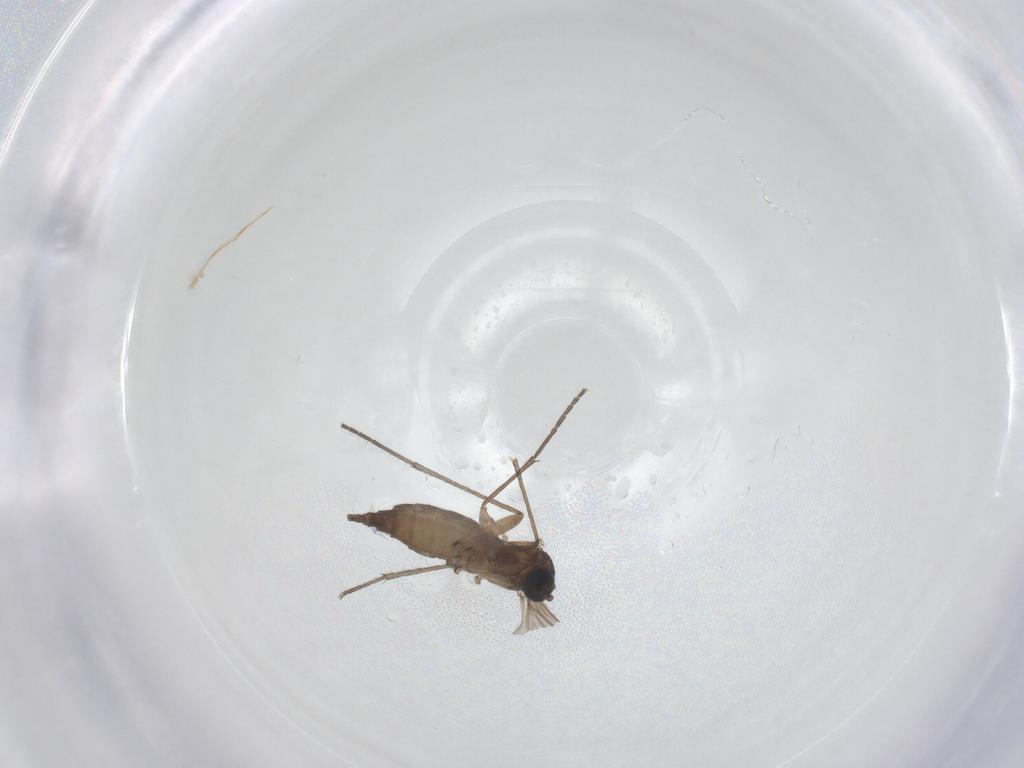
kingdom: Animalia
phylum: Arthropoda
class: Insecta
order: Diptera
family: Sciaridae
